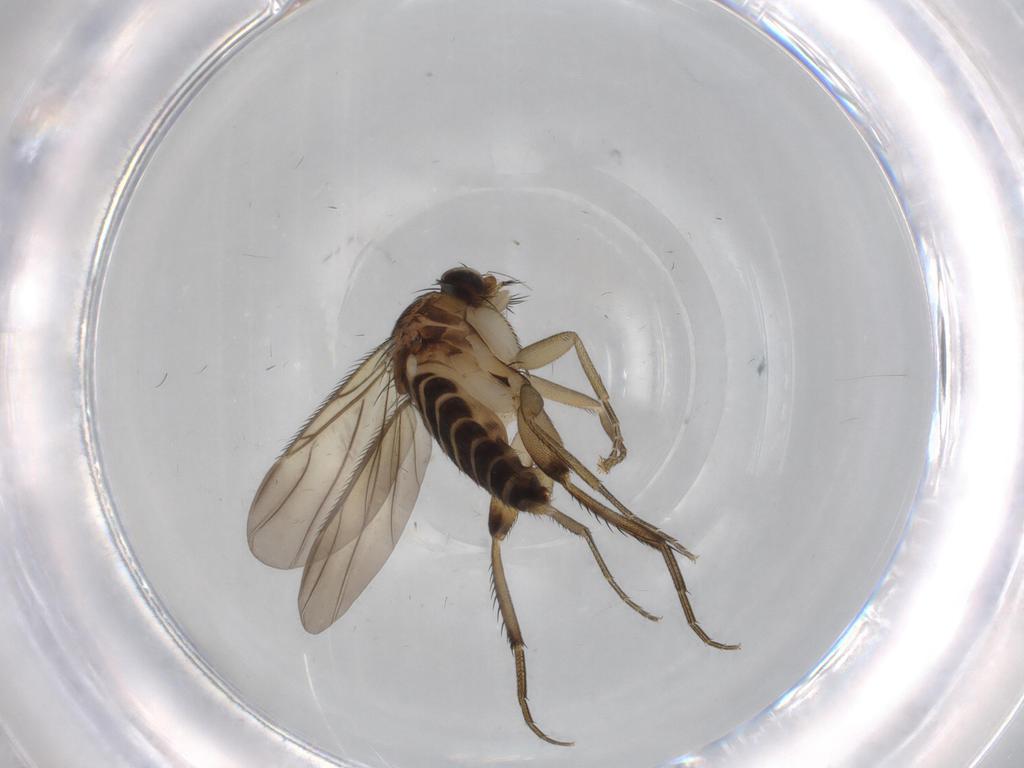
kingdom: Animalia
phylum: Arthropoda
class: Insecta
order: Diptera
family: Phoridae
